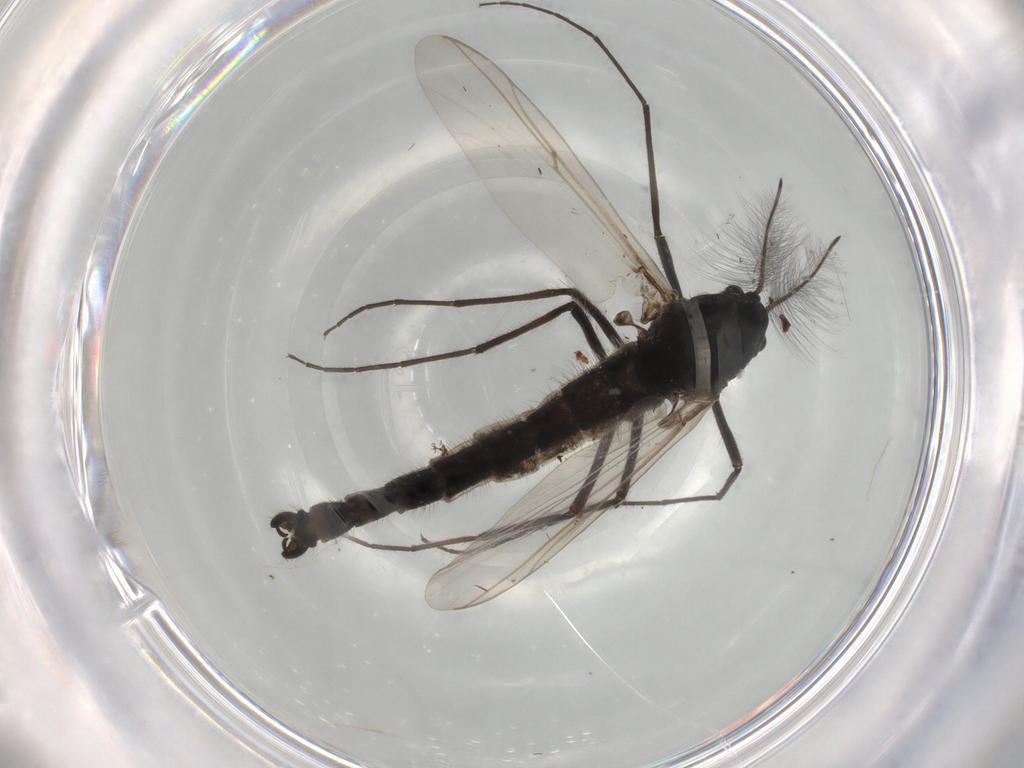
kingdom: Animalia
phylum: Arthropoda
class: Insecta
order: Diptera
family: Chironomidae
